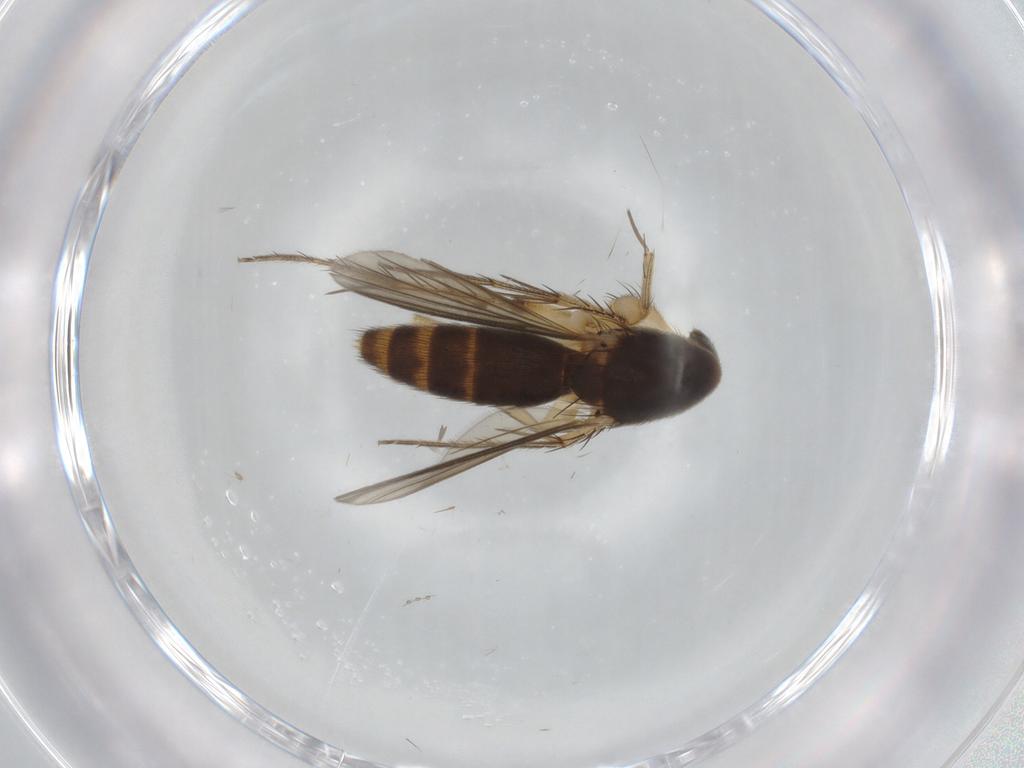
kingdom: Animalia
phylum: Arthropoda
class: Insecta
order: Diptera
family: Mycetophilidae
